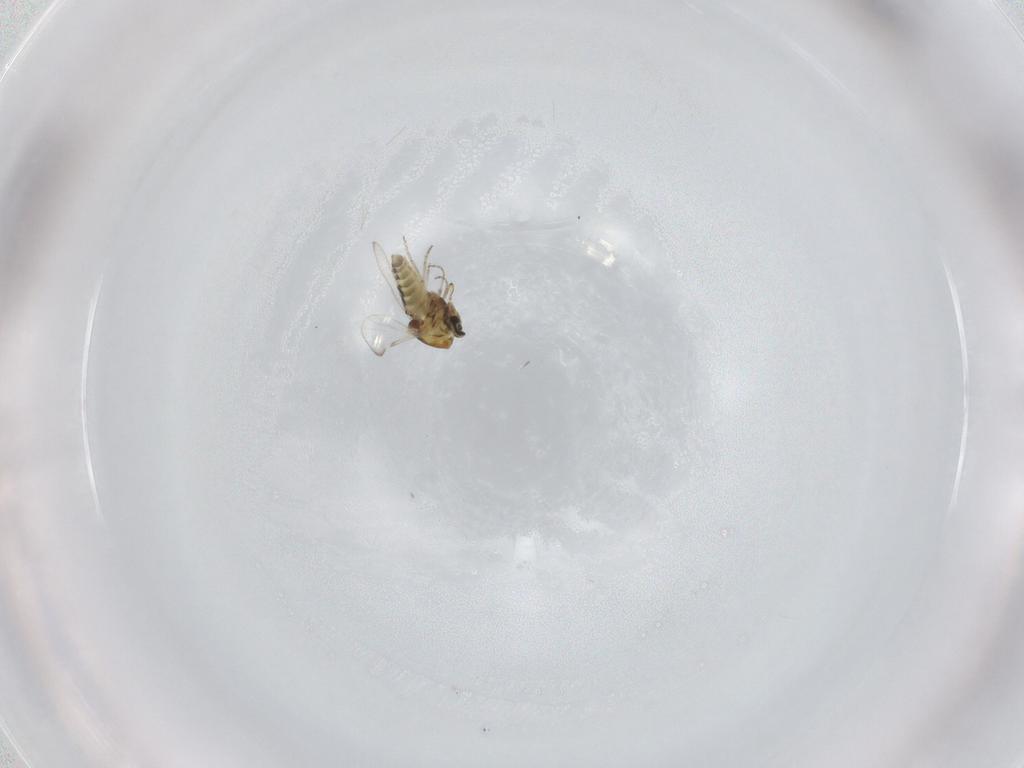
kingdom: Animalia
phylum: Arthropoda
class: Insecta
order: Diptera
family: Ceratopogonidae
